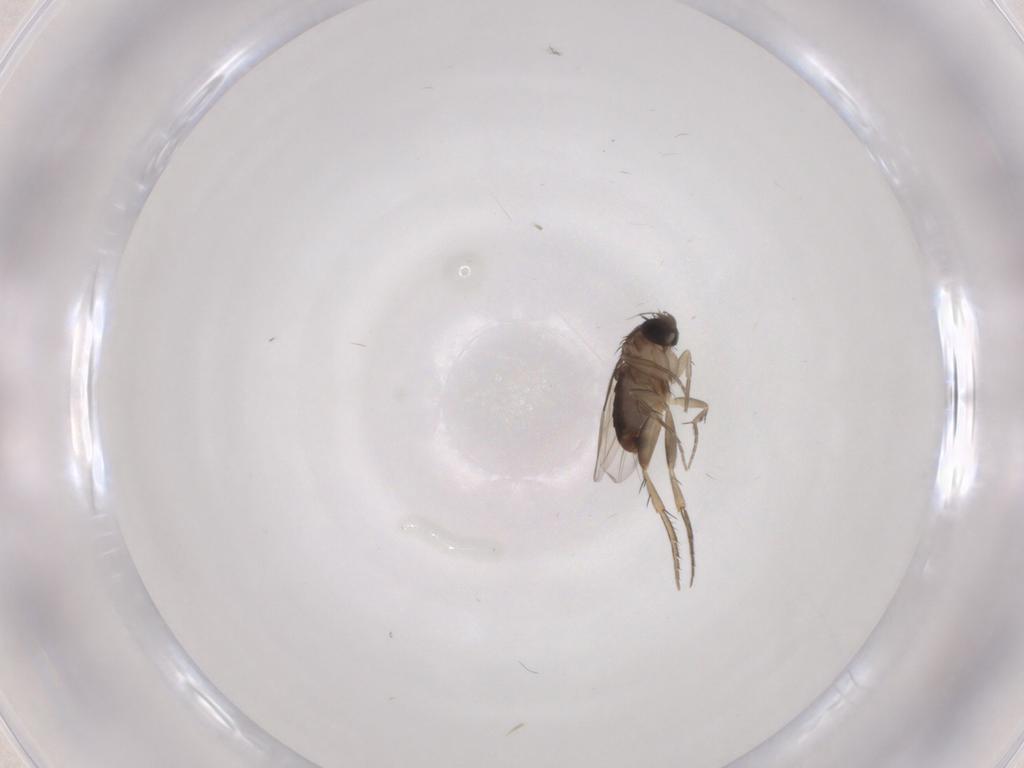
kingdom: Animalia
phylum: Arthropoda
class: Insecta
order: Diptera
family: Phoridae
